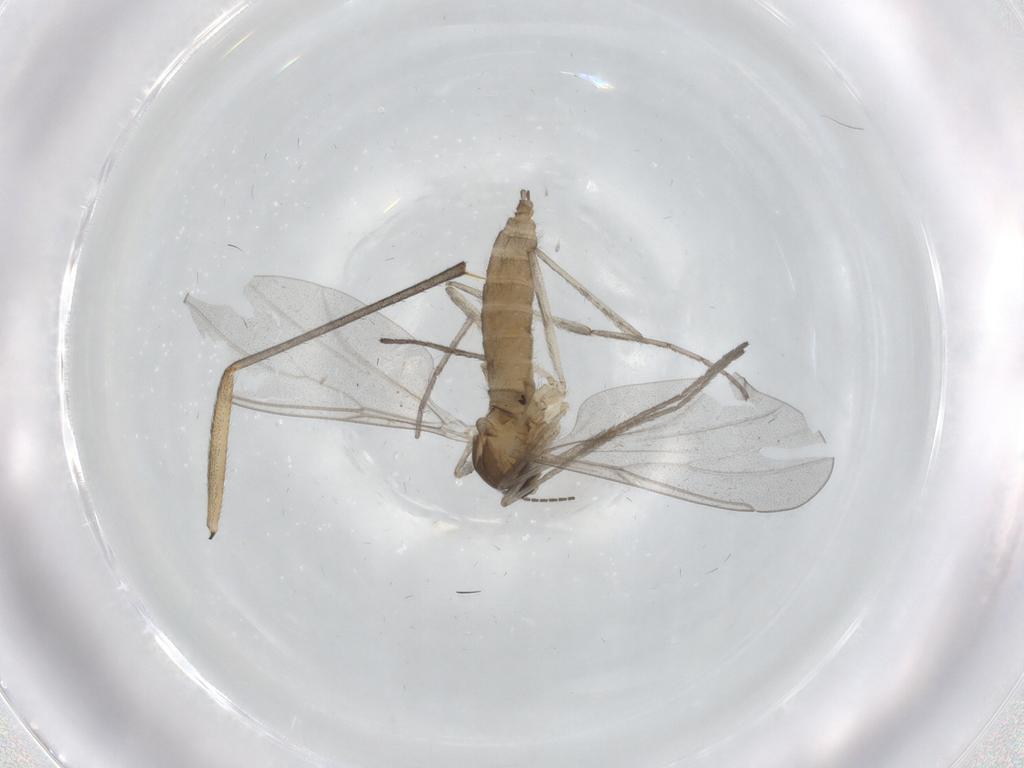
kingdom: Animalia
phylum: Arthropoda
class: Insecta
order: Diptera
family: Cecidomyiidae
